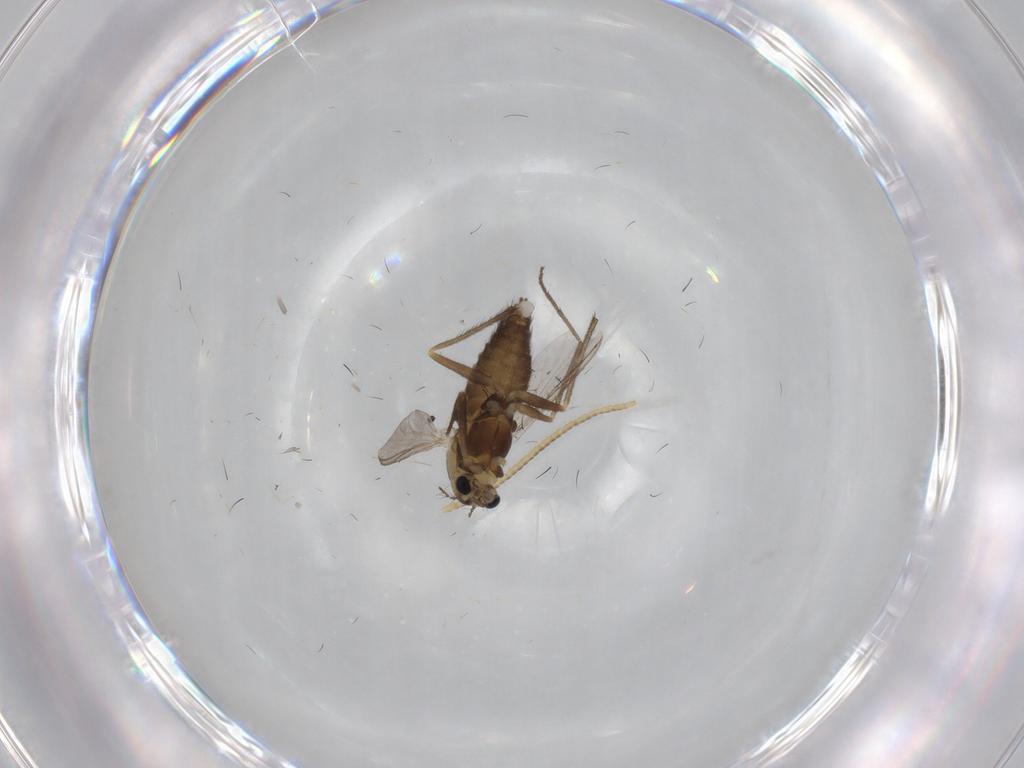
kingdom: Animalia
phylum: Arthropoda
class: Insecta
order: Diptera
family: Chironomidae
